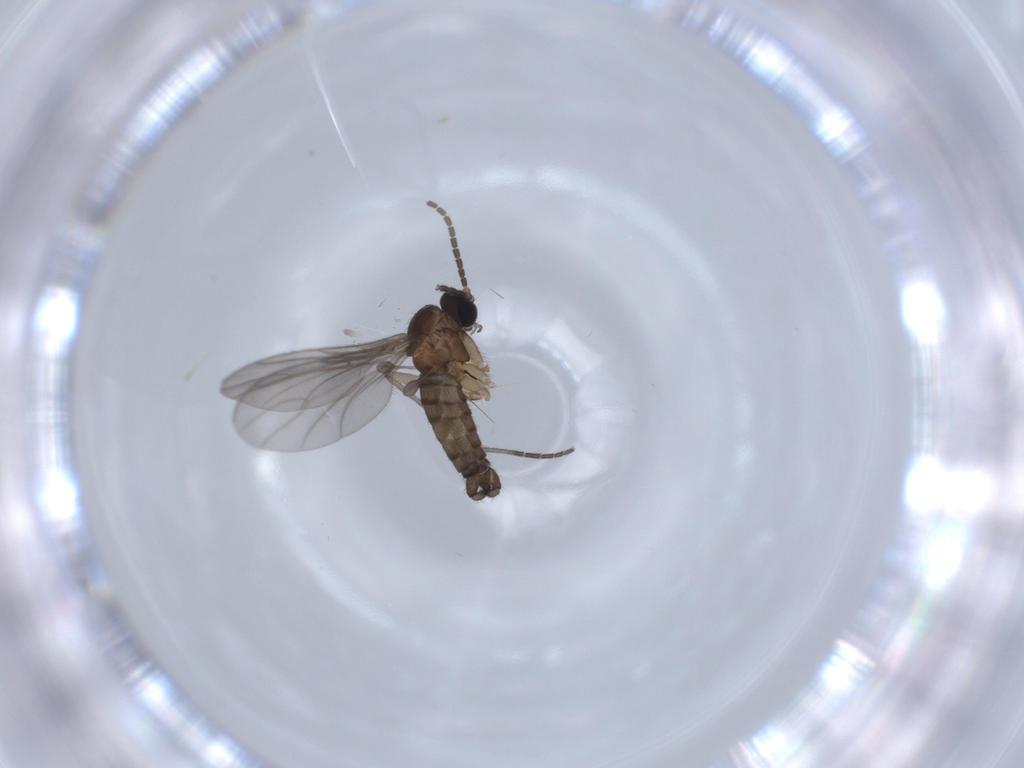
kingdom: Animalia
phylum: Arthropoda
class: Insecta
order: Diptera
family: Sciaridae
